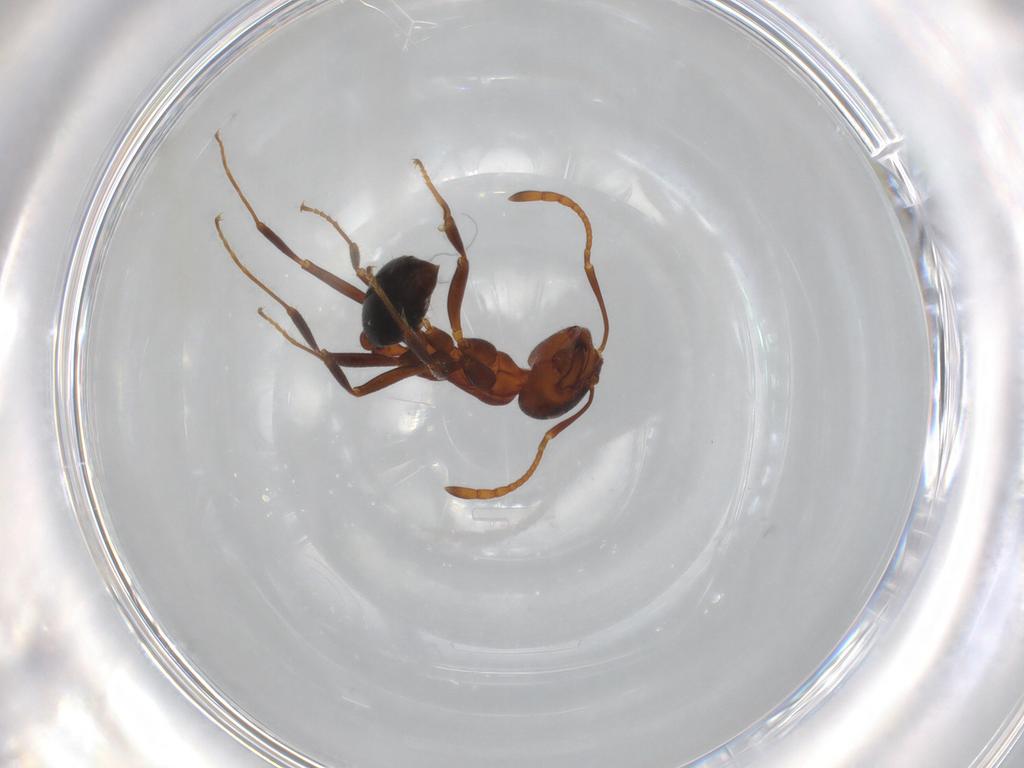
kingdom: Animalia
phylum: Arthropoda
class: Insecta
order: Hymenoptera
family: Formicidae
